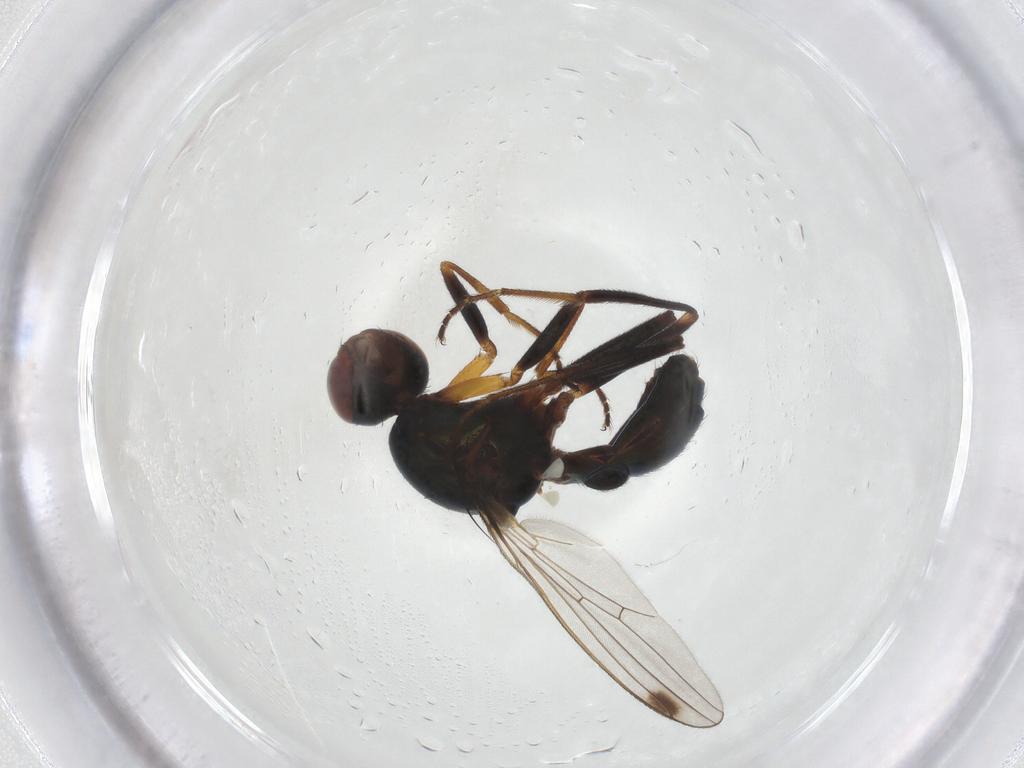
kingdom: Animalia
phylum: Arthropoda
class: Insecta
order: Diptera
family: Sepsidae
